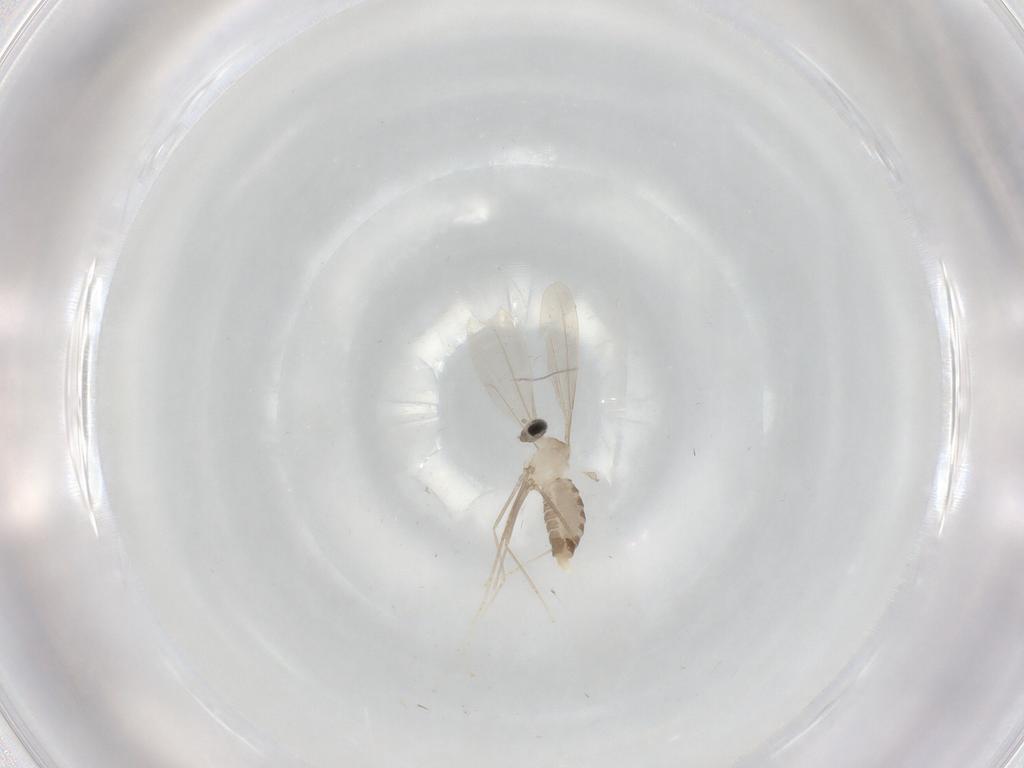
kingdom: Animalia
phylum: Arthropoda
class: Insecta
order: Diptera
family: Cecidomyiidae
